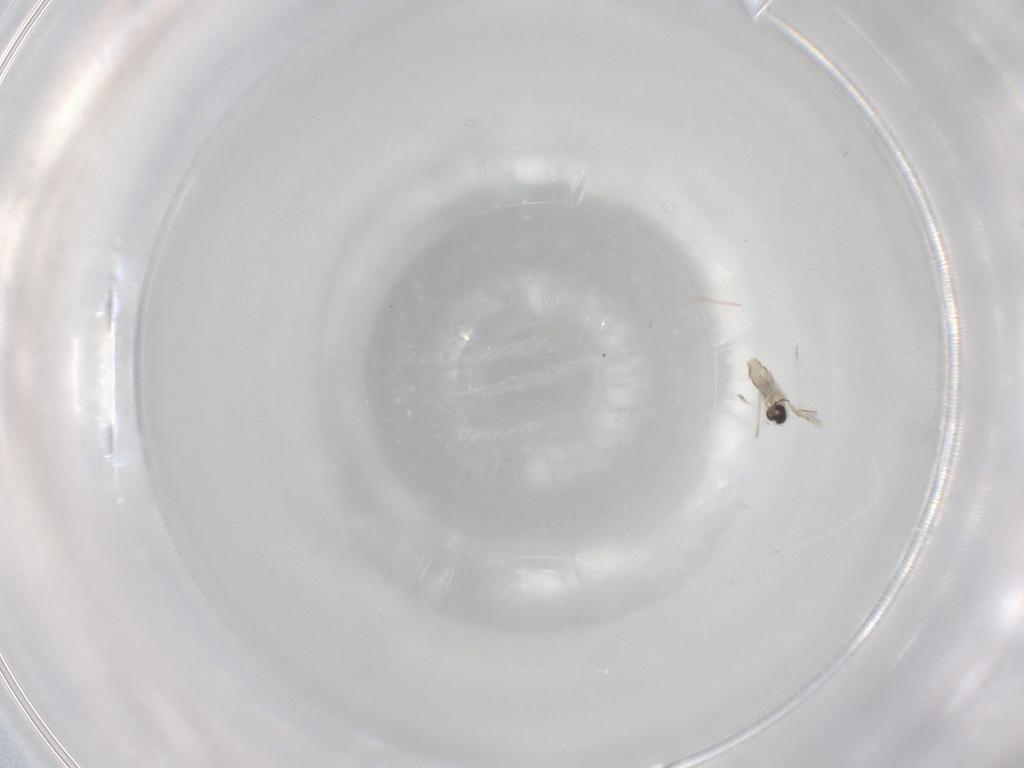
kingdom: Animalia
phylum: Arthropoda
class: Insecta
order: Diptera
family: Cecidomyiidae
